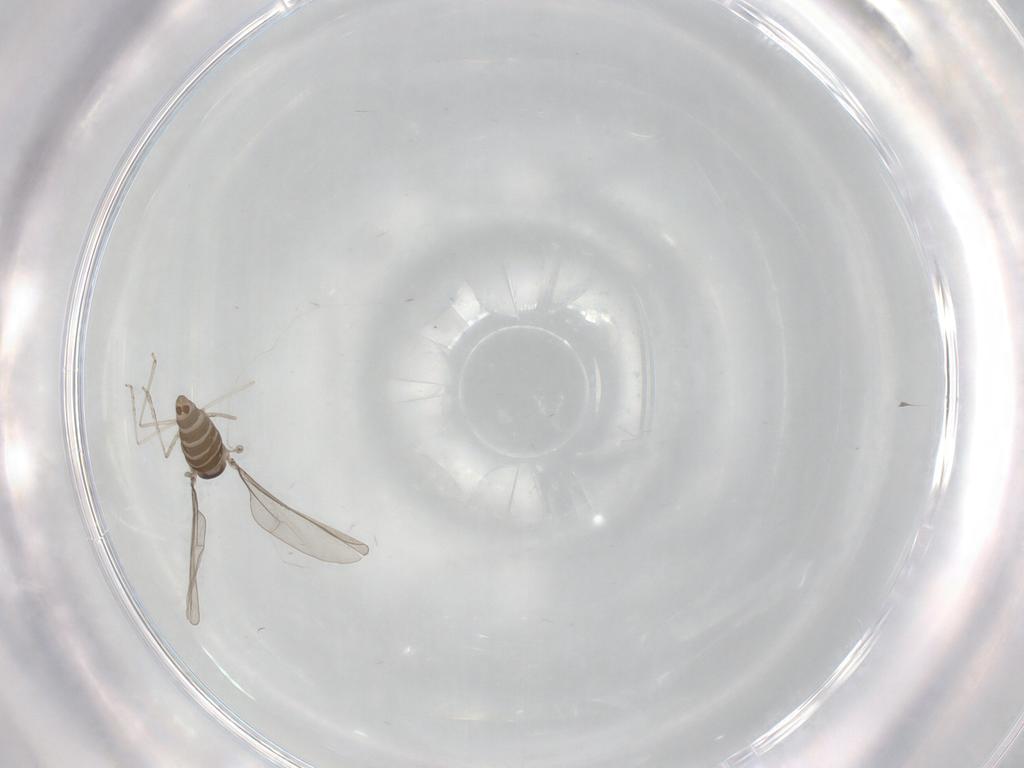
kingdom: Animalia
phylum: Arthropoda
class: Insecta
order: Diptera
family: Cecidomyiidae
